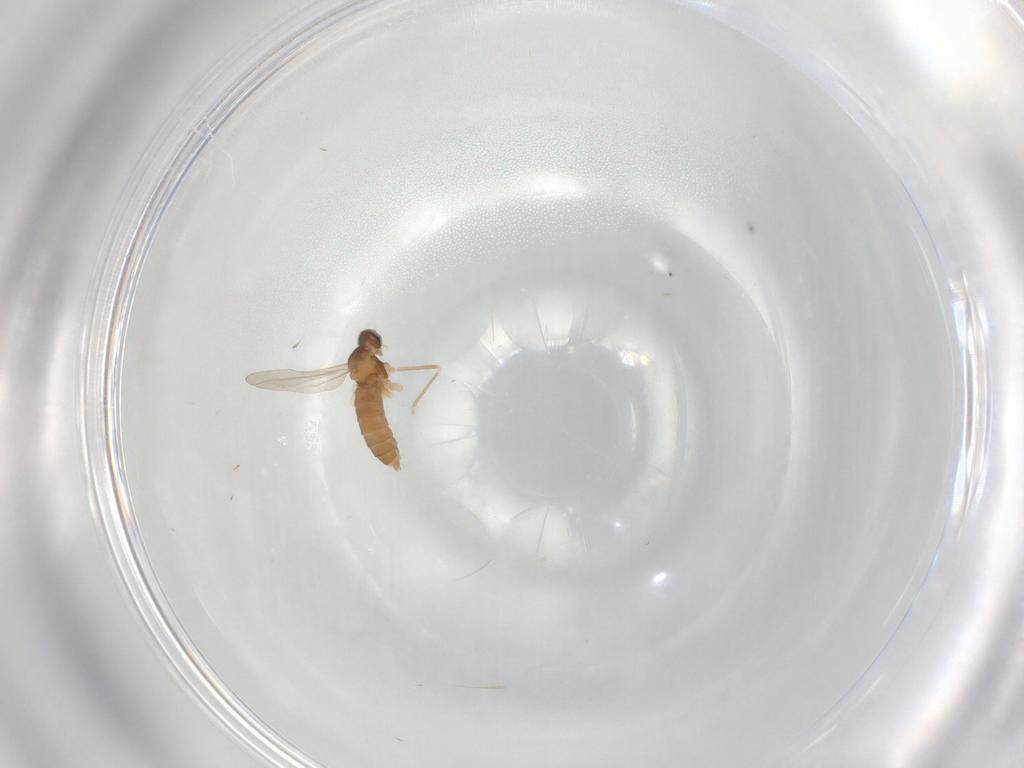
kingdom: Animalia
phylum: Arthropoda
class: Insecta
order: Diptera
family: Cecidomyiidae
